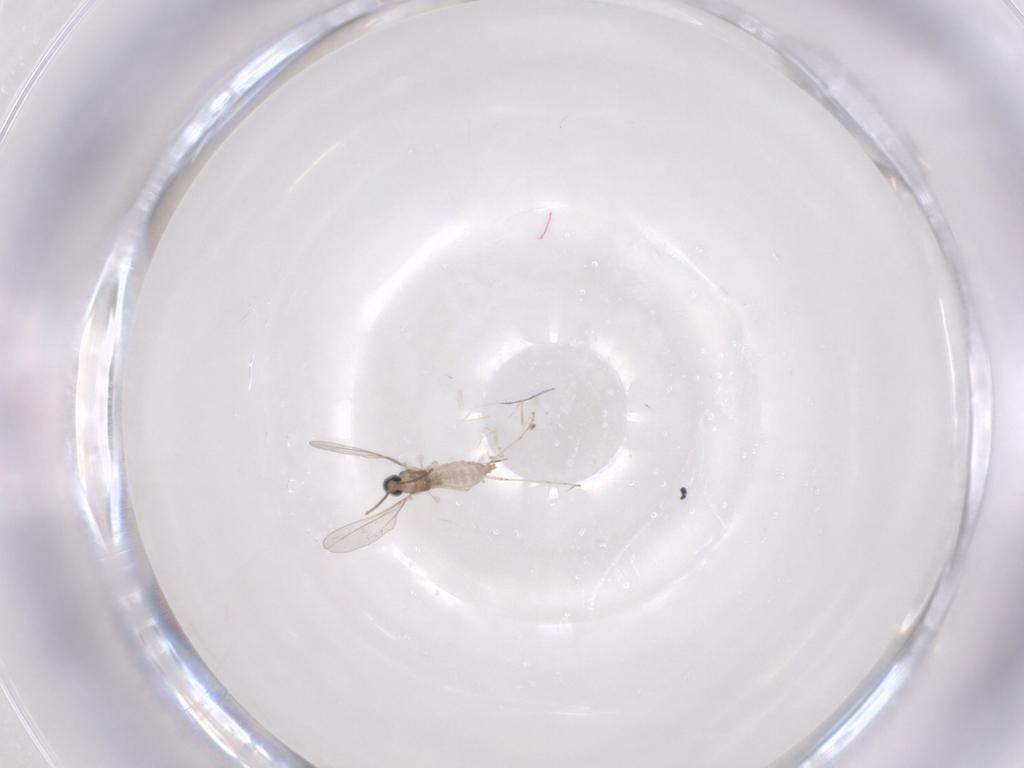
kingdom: Animalia
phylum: Arthropoda
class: Insecta
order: Diptera
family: Cecidomyiidae
